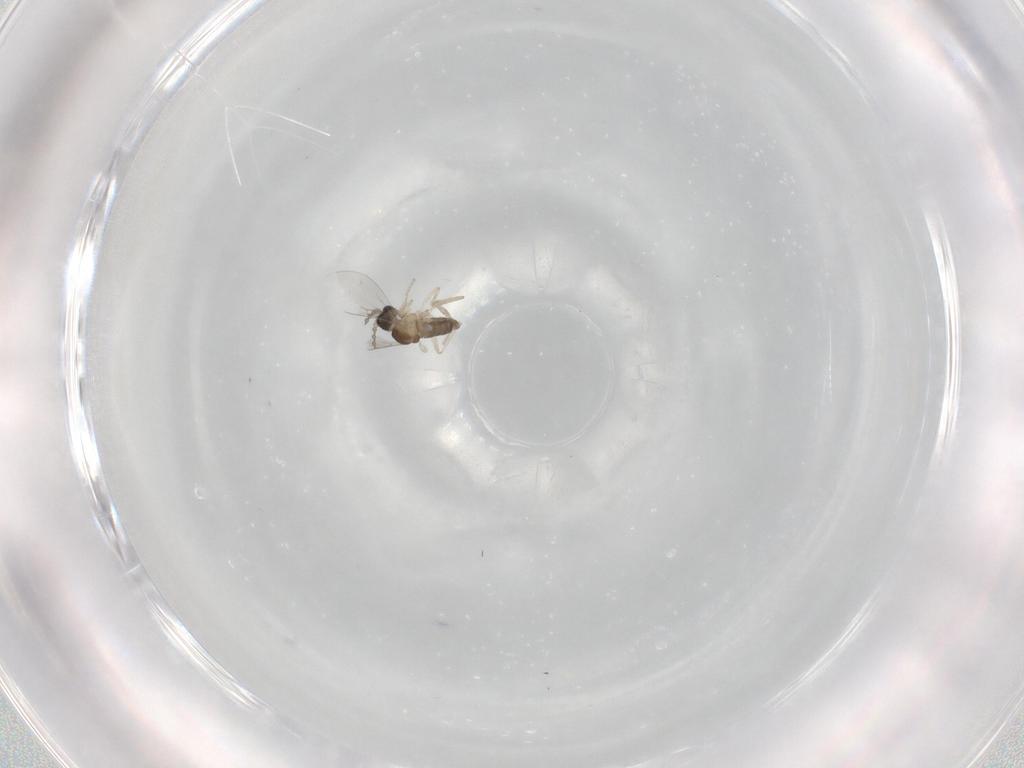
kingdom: Animalia
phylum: Arthropoda
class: Insecta
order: Diptera
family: Cecidomyiidae
